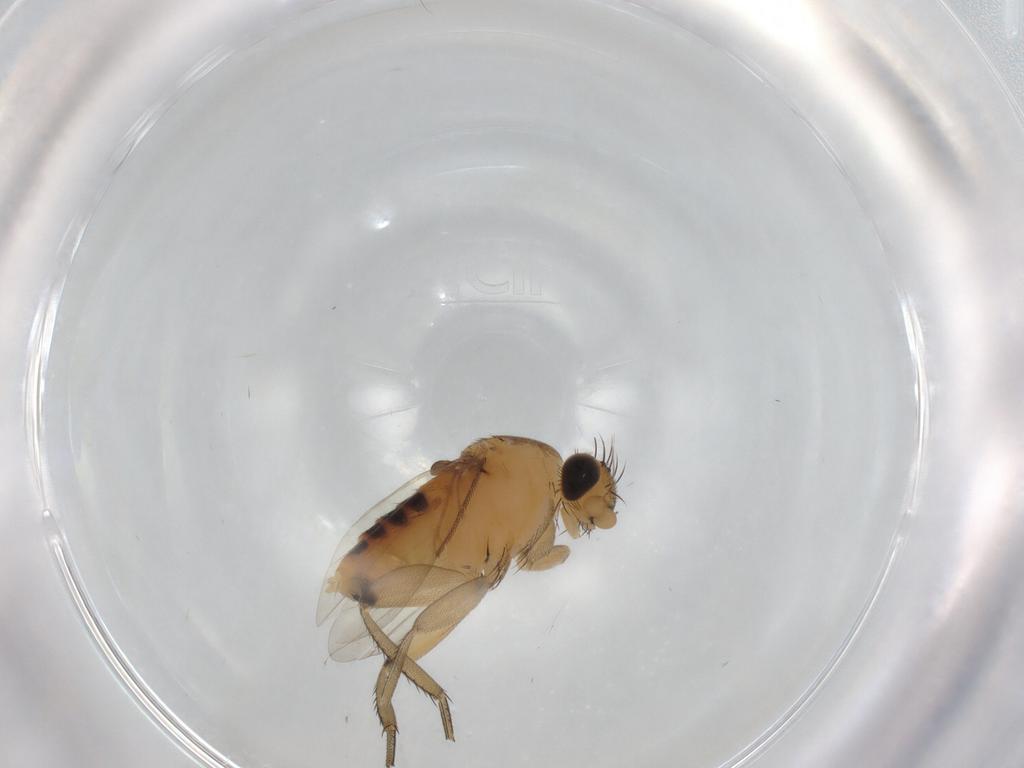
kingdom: Animalia
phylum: Arthropoda
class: Insecta
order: Diptera
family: Phoridae
